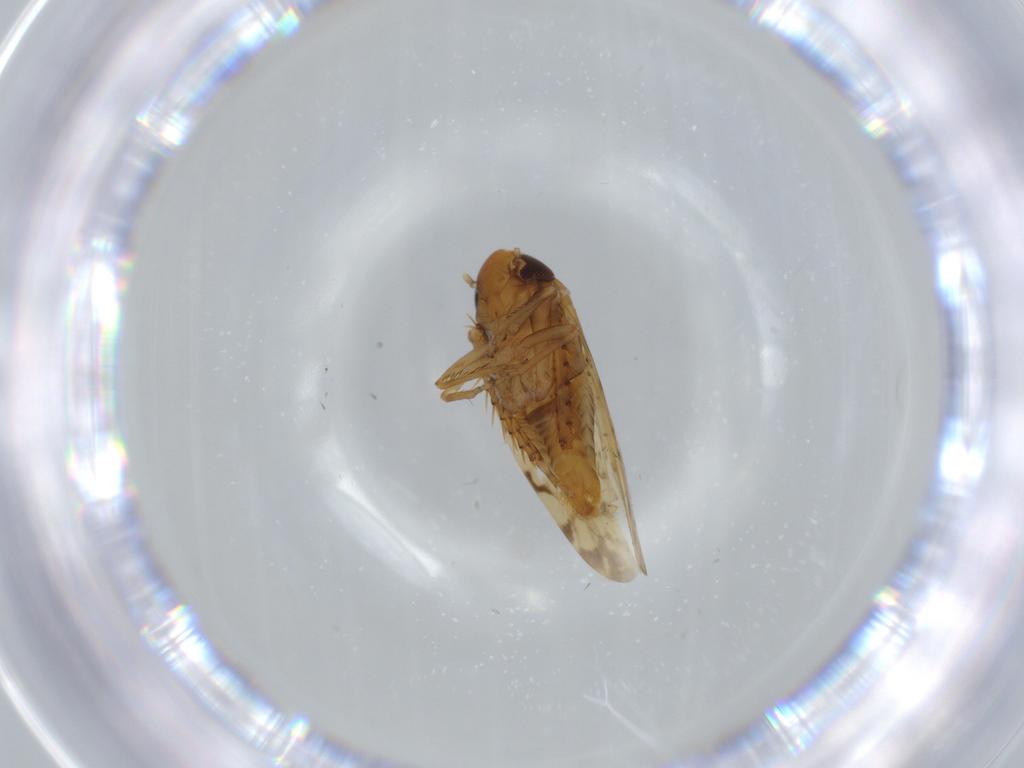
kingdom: Animalia
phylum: Arthropoda
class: Insecta
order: Hemiptera
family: Cicadellidae
